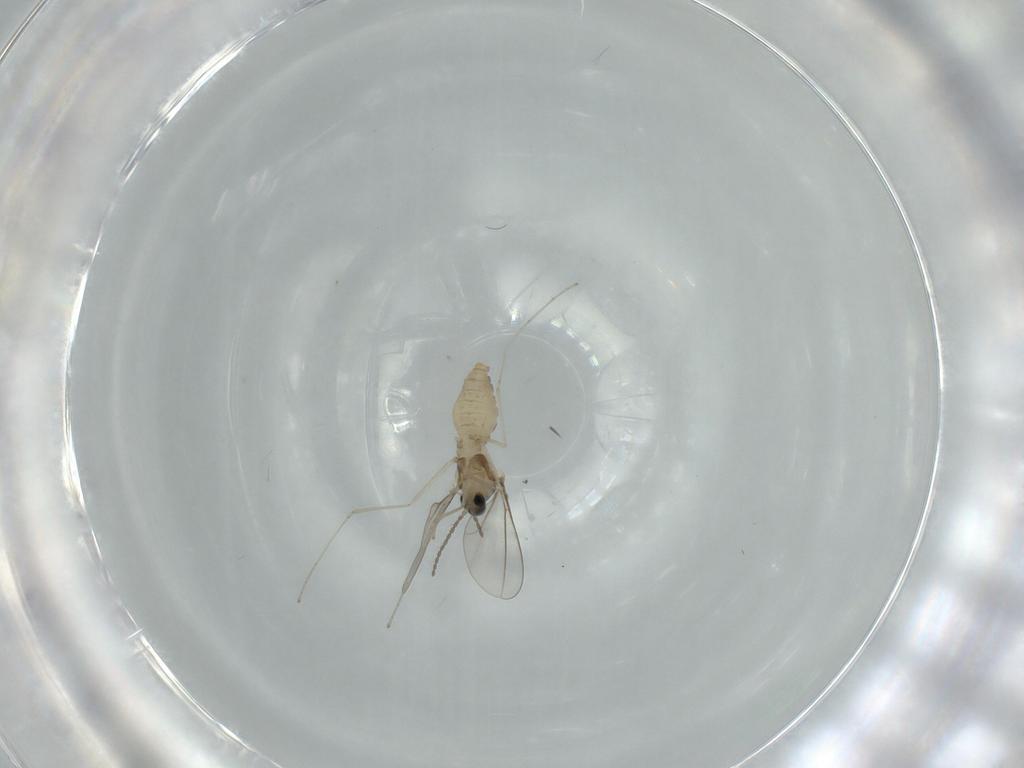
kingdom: Animalia
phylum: Arthropoda
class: Insecta
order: Diptera
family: Cecidomyiidae
